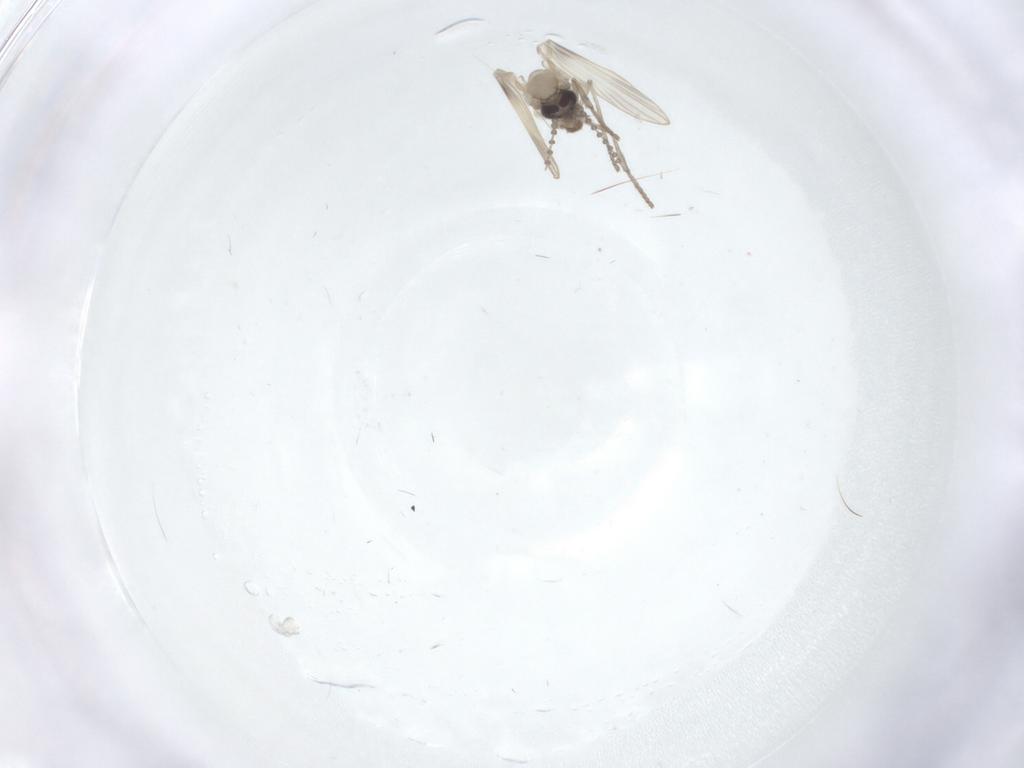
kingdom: Animalia
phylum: Arthropoda
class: Insecta
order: Diptera
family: Psychodidae
